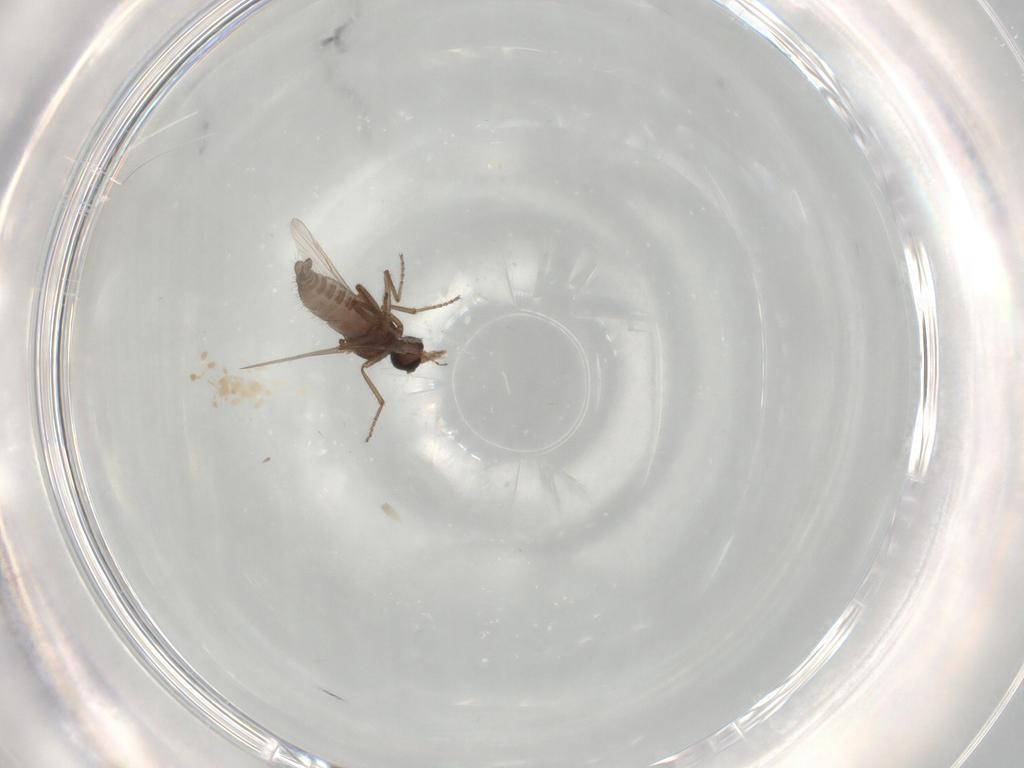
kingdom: Animalia
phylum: Arthropoda
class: Insecta
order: Diptera
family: Ceratopogonidae
